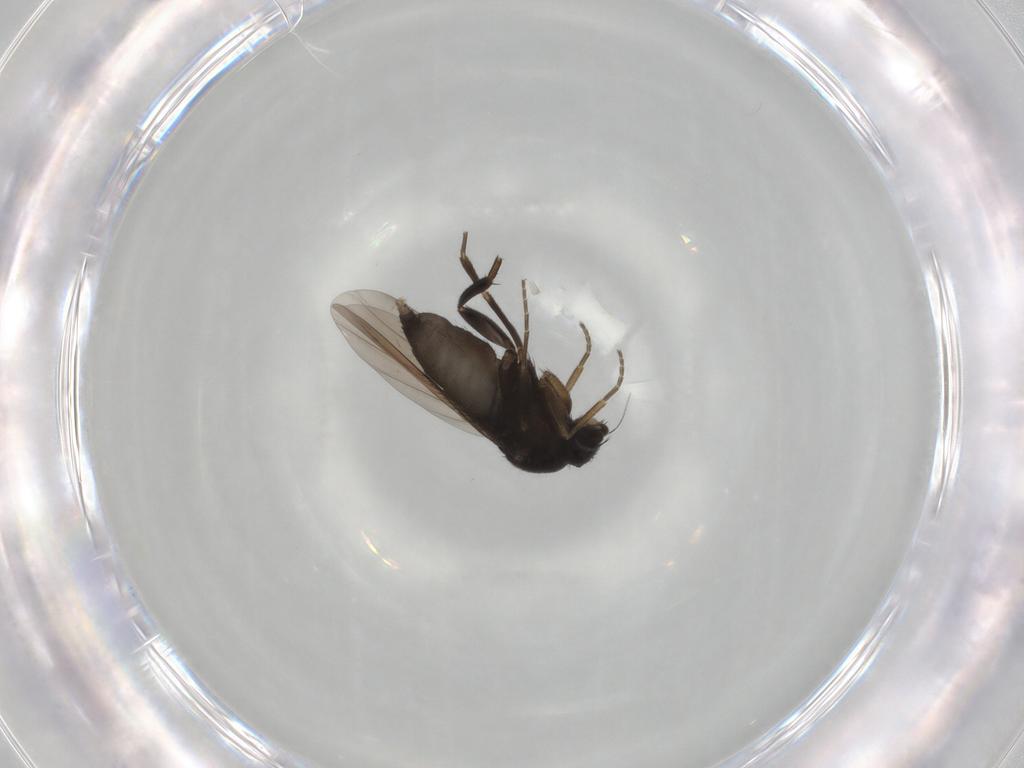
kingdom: Animalia
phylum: Arthropoda
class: Insecta
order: Diptera
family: Phoridae
